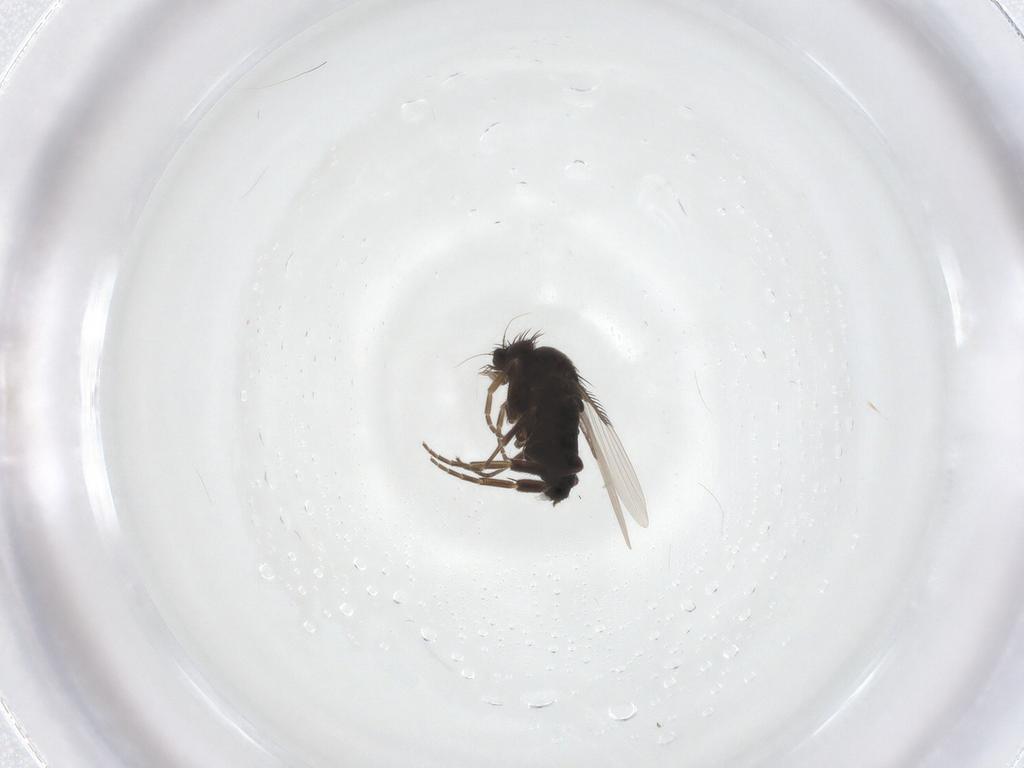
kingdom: Animalia
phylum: Arthropoda
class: Insecta
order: Diptera
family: Phoridae
